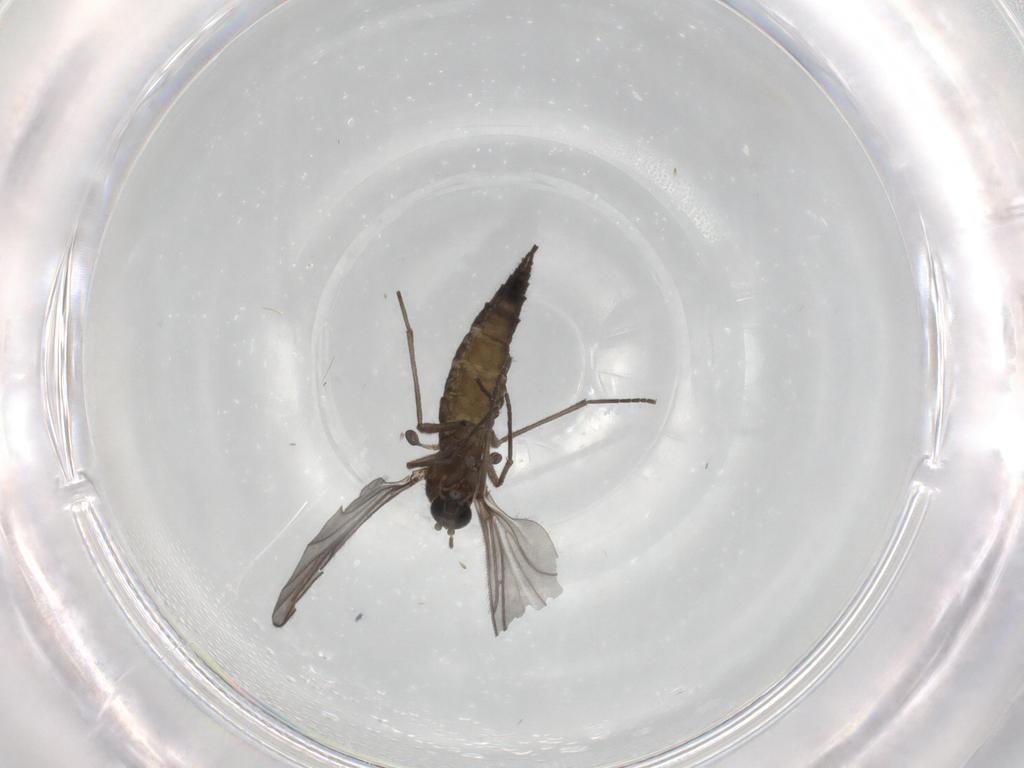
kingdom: Animalia
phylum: Arthropoda
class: Insecta
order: Diptera
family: Sciaridae
